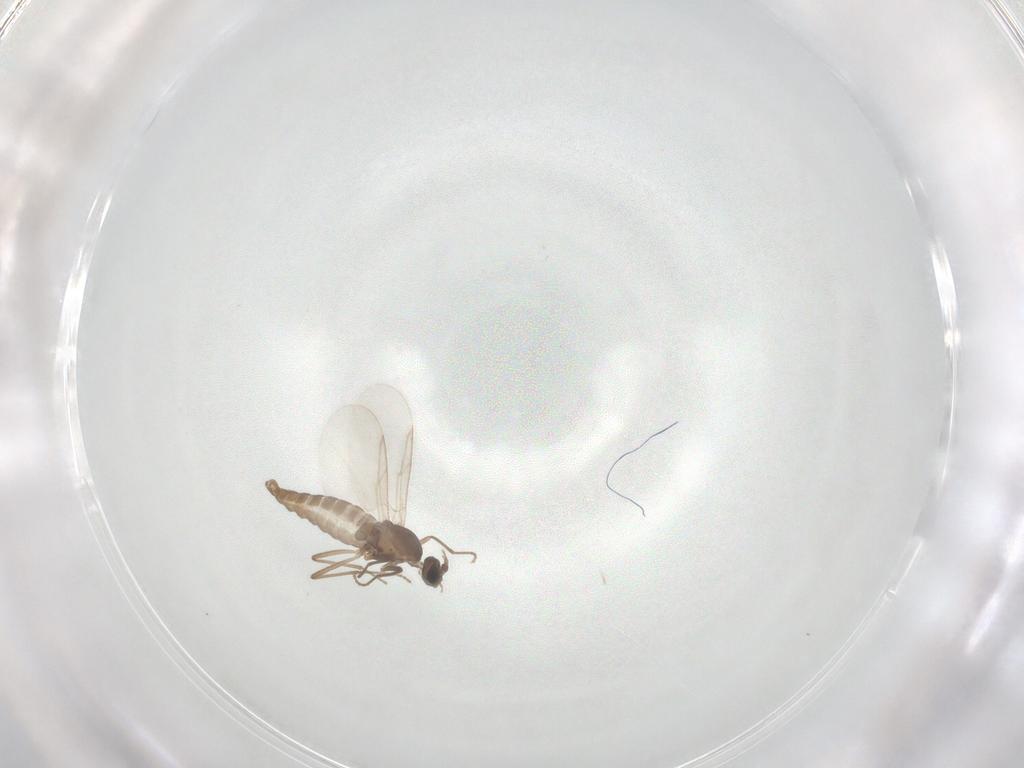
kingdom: Animalia
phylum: Arthropoda
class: Insecta
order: Diptera
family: Cecidomyiidae
